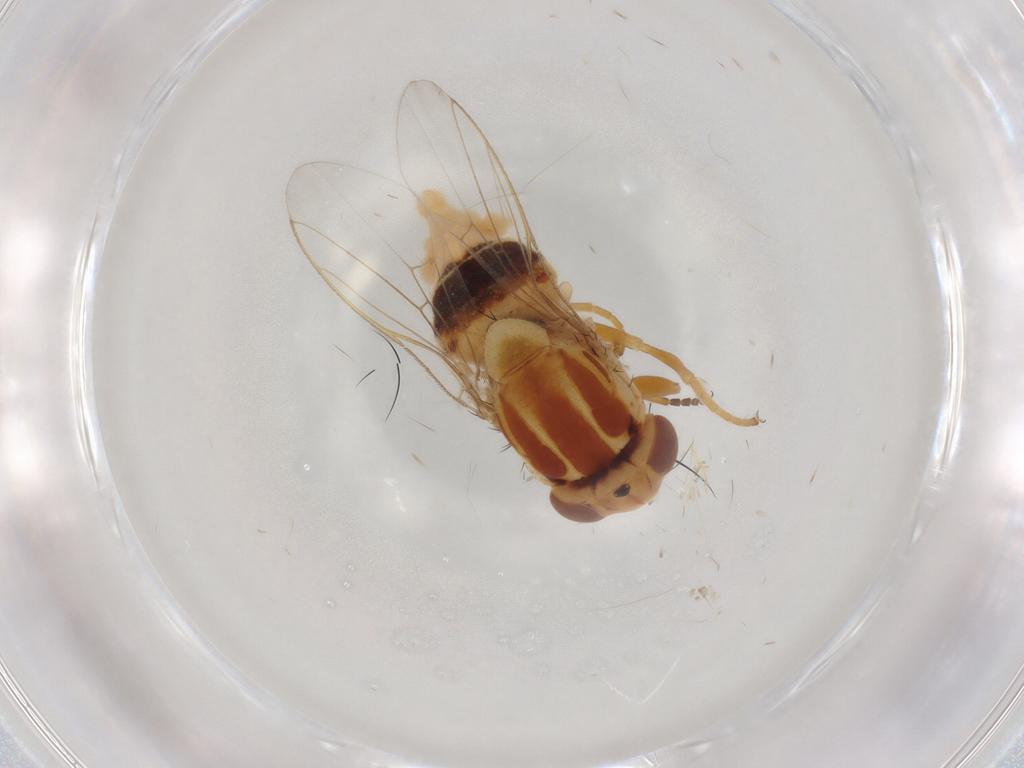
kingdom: Animalia
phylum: Arthropoda
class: Insecta
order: Diptera
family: Chloropidae
